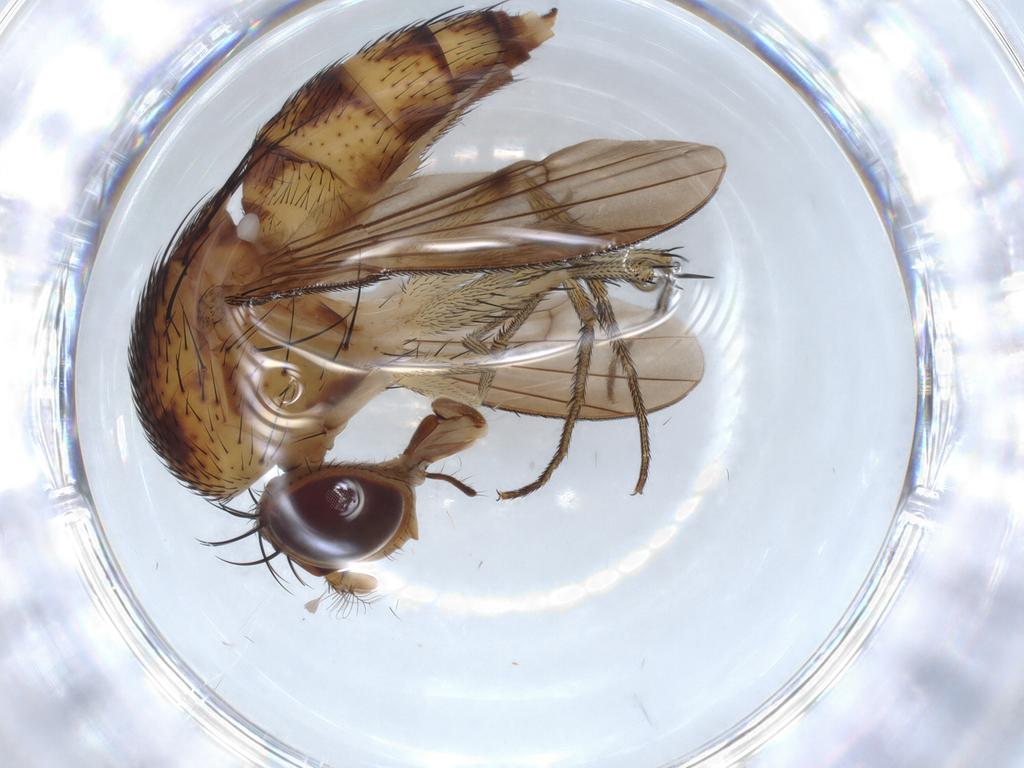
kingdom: Animalia
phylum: Arthropoda
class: Insecta
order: Diptera
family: Curtonotidae
